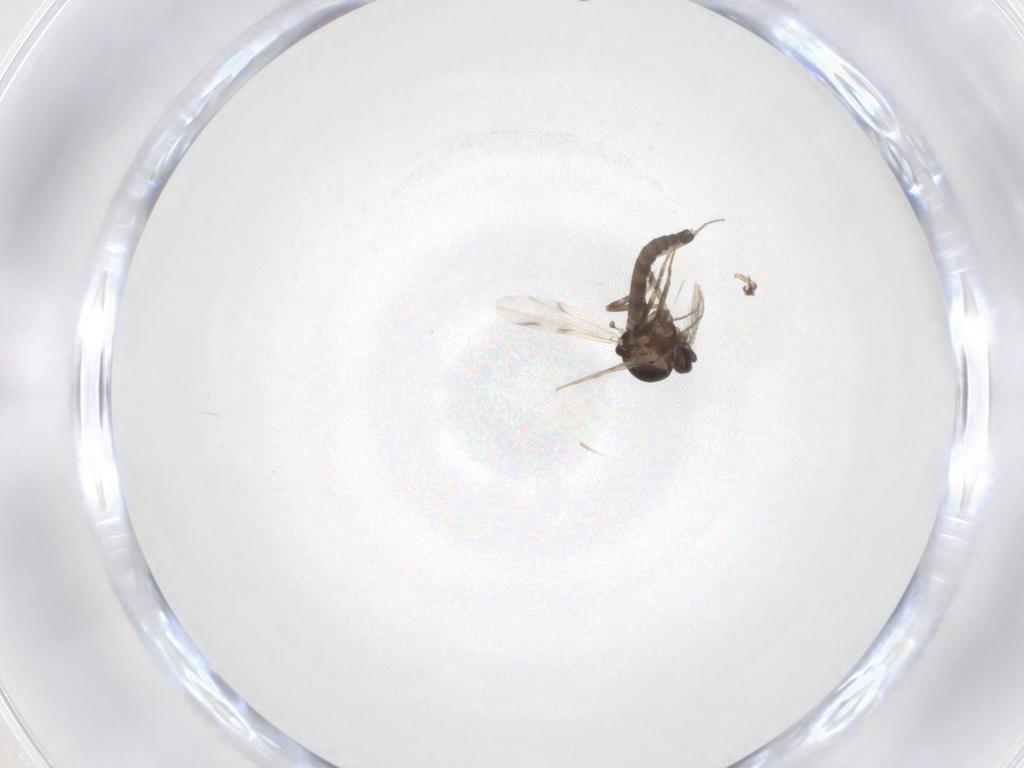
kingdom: Animalia
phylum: Arthropoda
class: Insecta
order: Diptera
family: Ceratopogonidae
